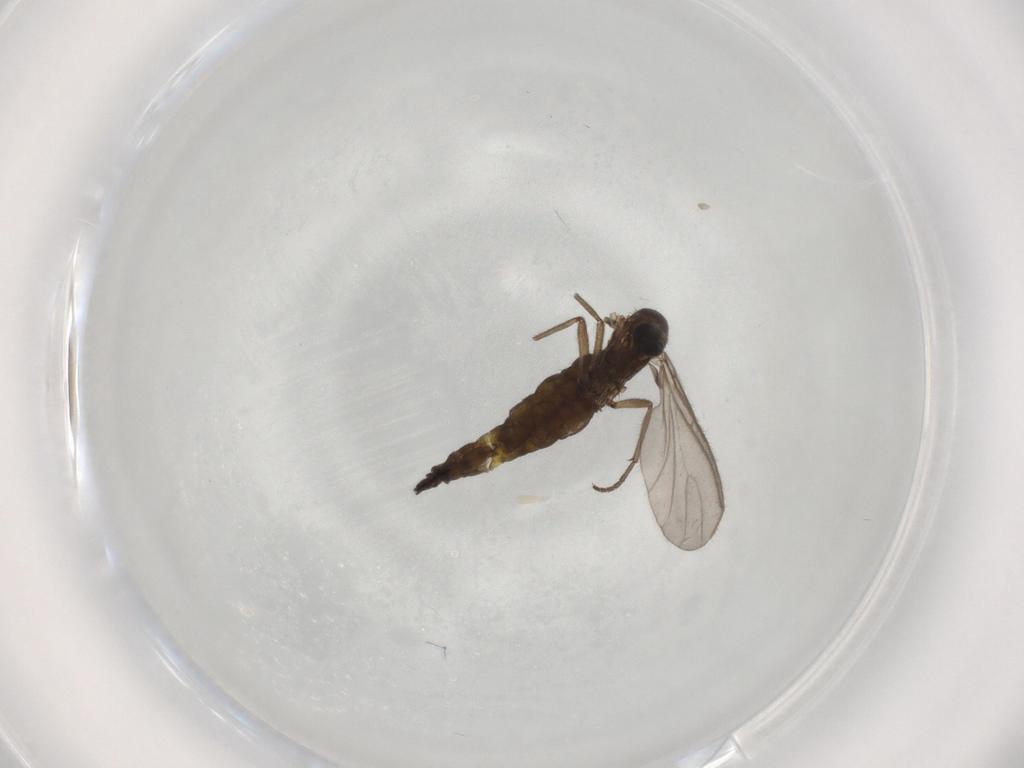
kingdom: Animalia
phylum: Arthropoda
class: Insecta
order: Diptera
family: Sciaridae
